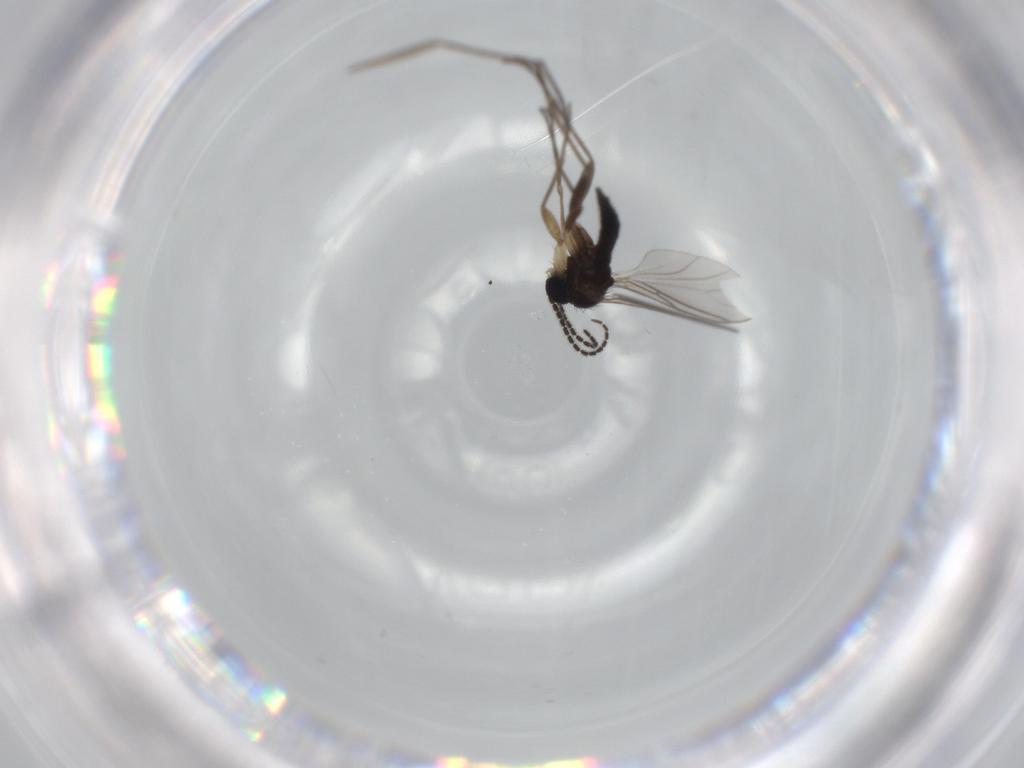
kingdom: Animalia
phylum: Arthropoda
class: Insecta
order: Diptera
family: Sciaridae
